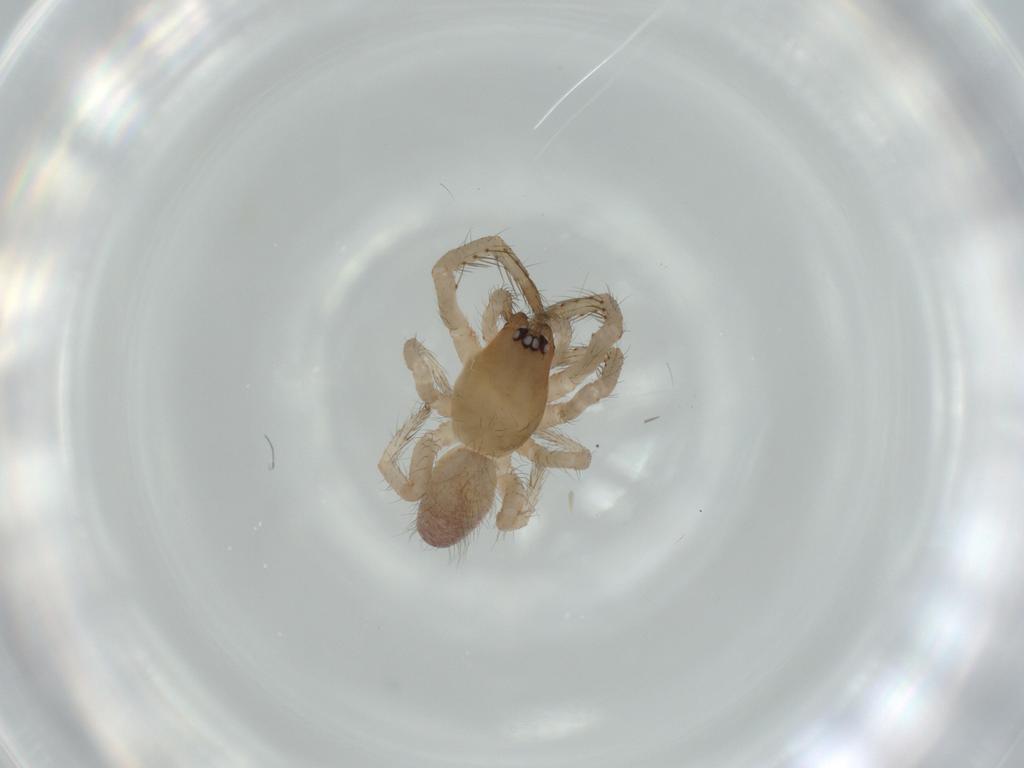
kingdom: Animalia
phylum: Arthropoda
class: Arachnida
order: Araneae
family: Segestriidae
